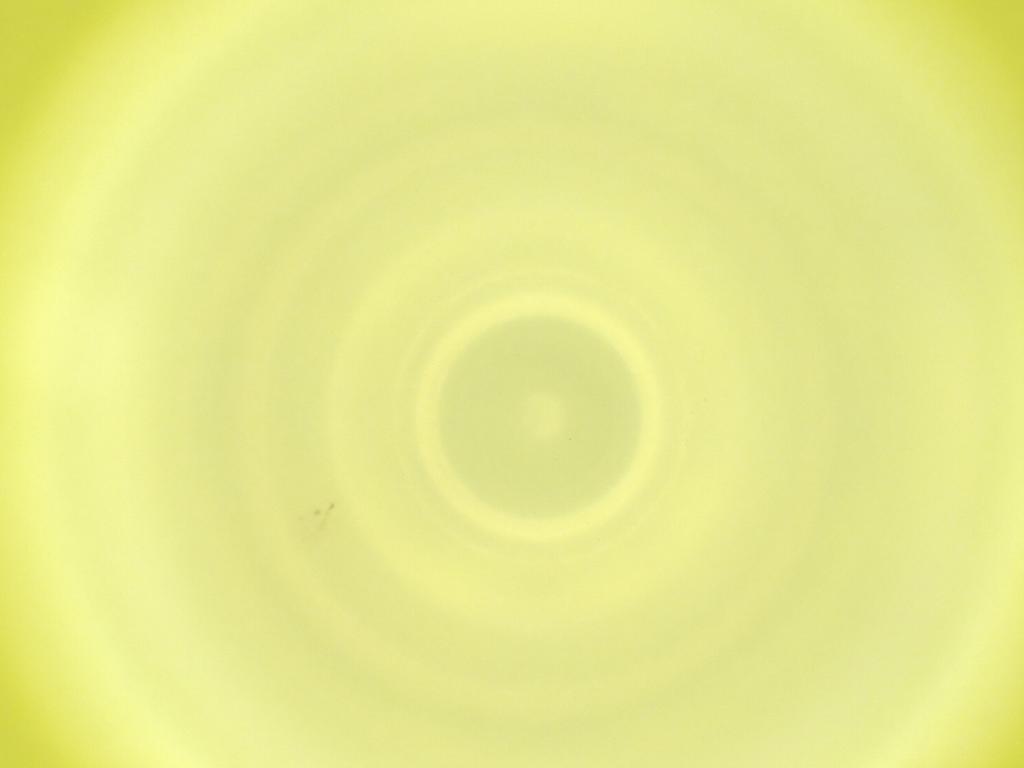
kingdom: Animalia
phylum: Arthropoda
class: Insecta
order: Diptera
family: Cecidomyiidae
